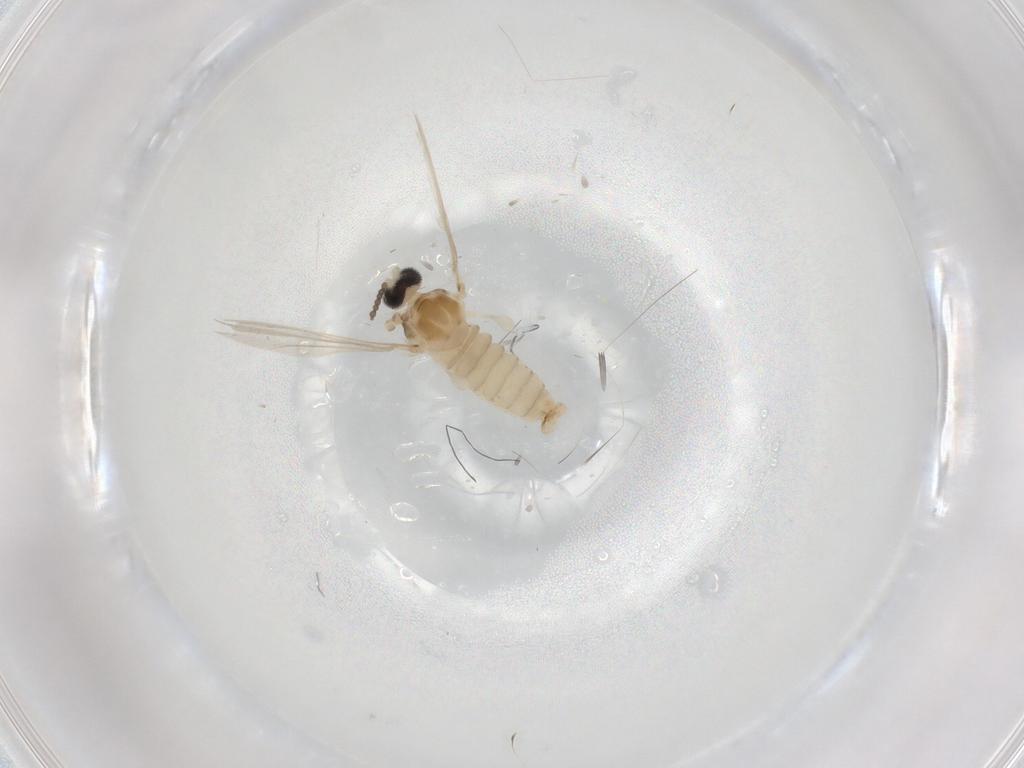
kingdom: Animalia
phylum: Arthropoda
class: Insecta
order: Diptera
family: Cecidomyiidae
